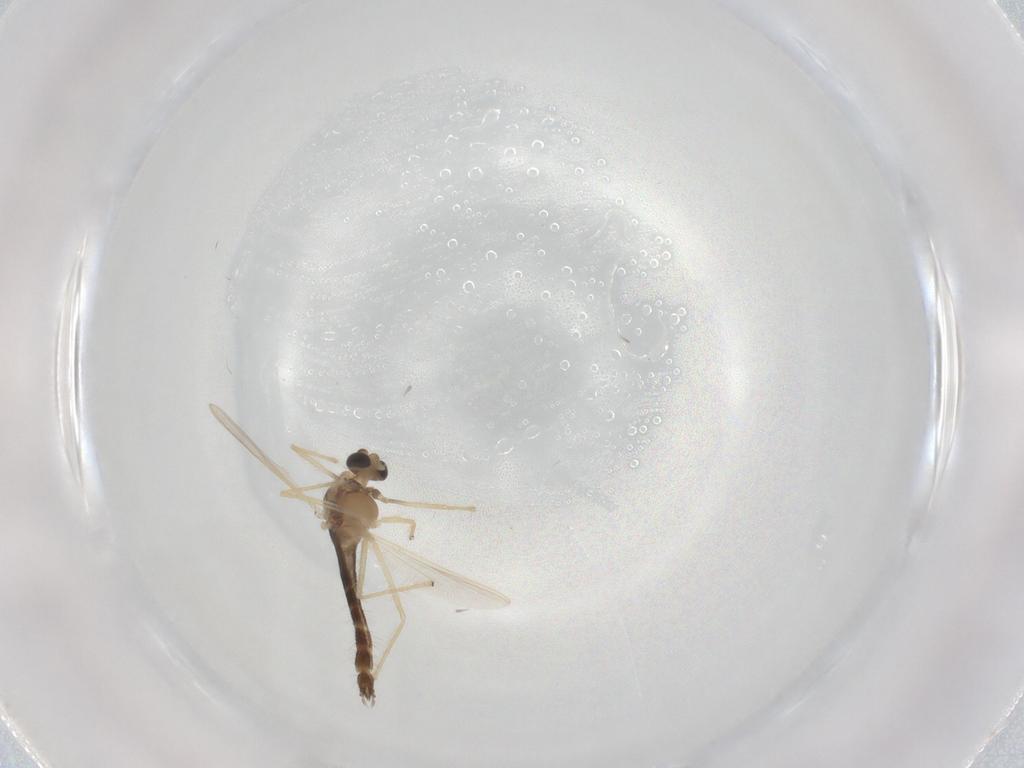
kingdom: Animalia
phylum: Arthropoda
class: Insecta
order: Diptera
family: Chironomidae
